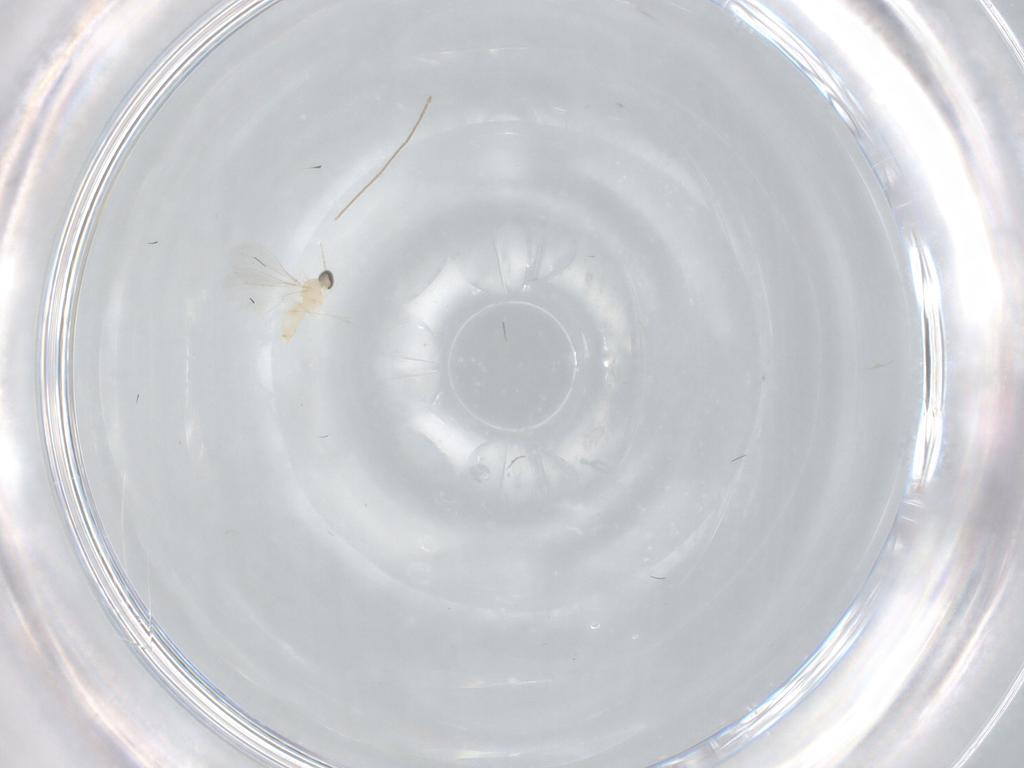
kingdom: Animalia
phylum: Arthropoda
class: Insecta
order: Diptera
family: Cecidomyiidae
